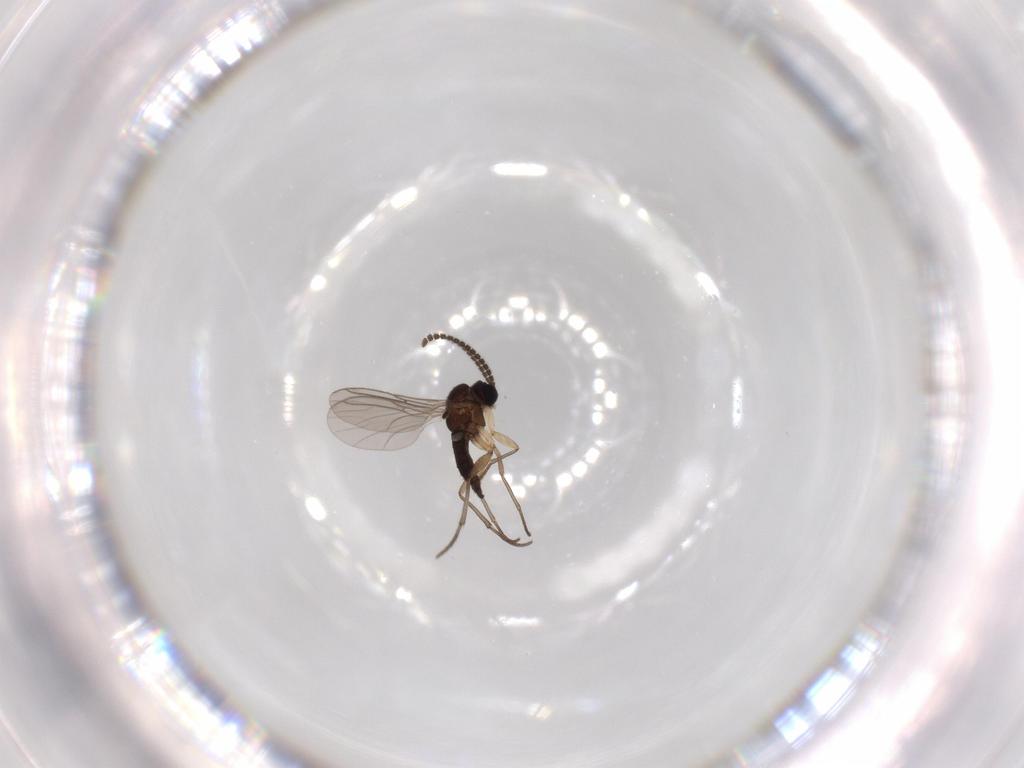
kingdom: Animalia
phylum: Arthropoda
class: Insecta
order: Diptera
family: Sciaridae
